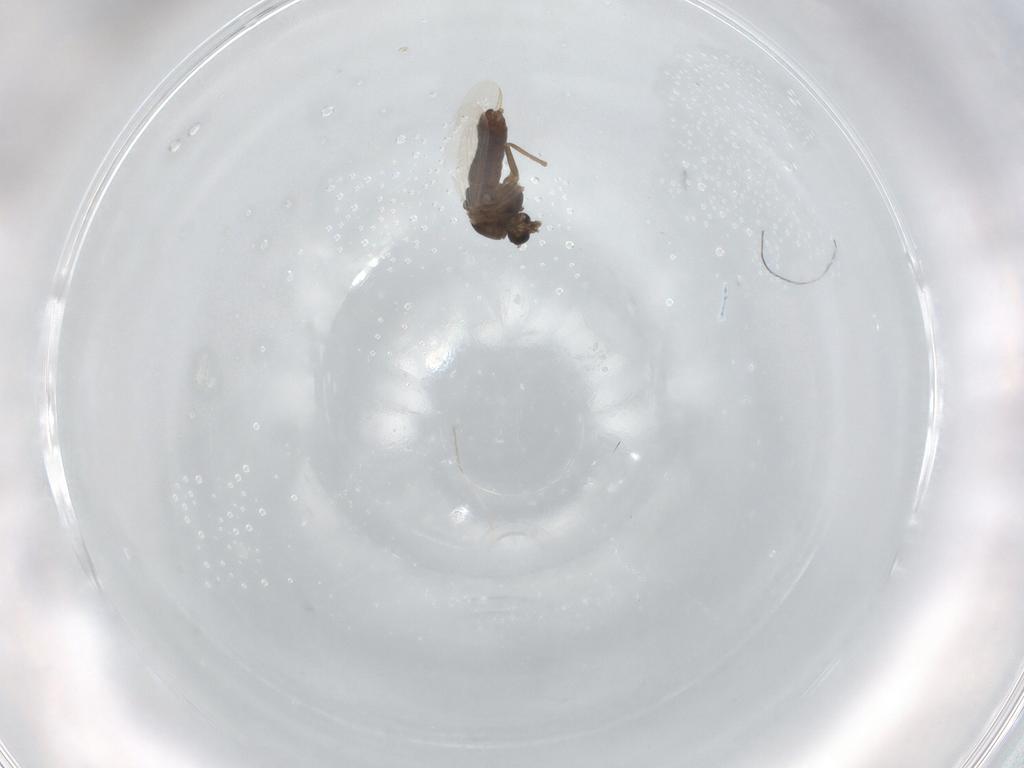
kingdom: Animalia
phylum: Arthropoda
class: Insecta
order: Diptera
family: Chironomidae
